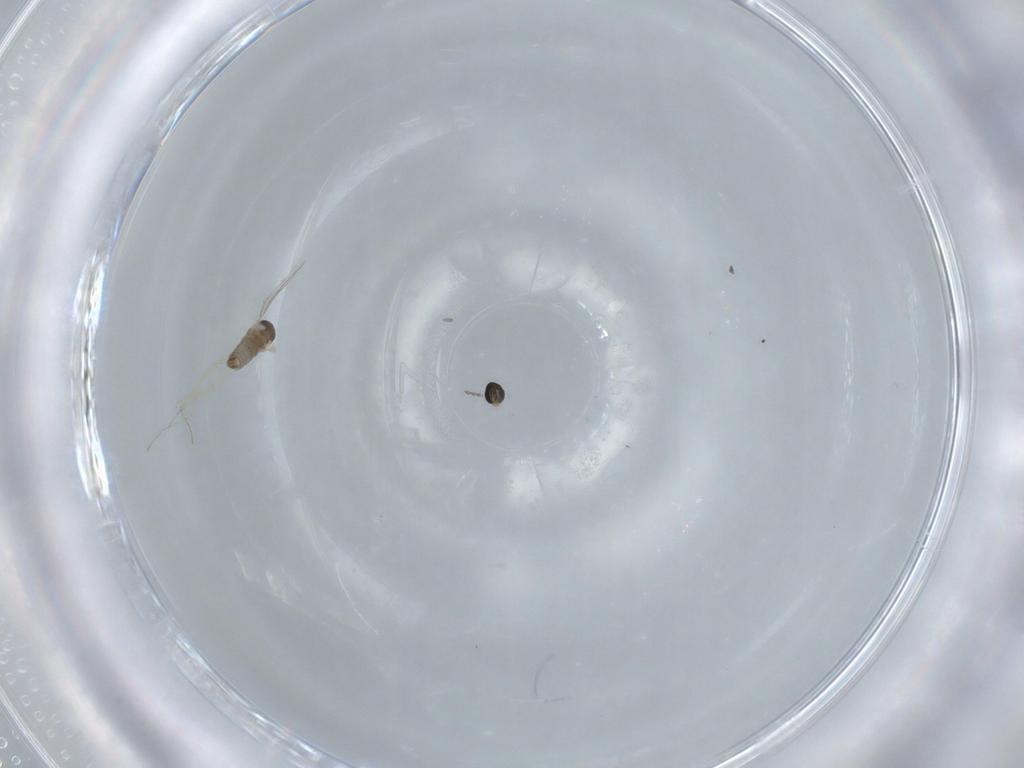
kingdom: Animalia
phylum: Arthropoda
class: Insecta
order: Diptera
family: Cecidomyiidae
